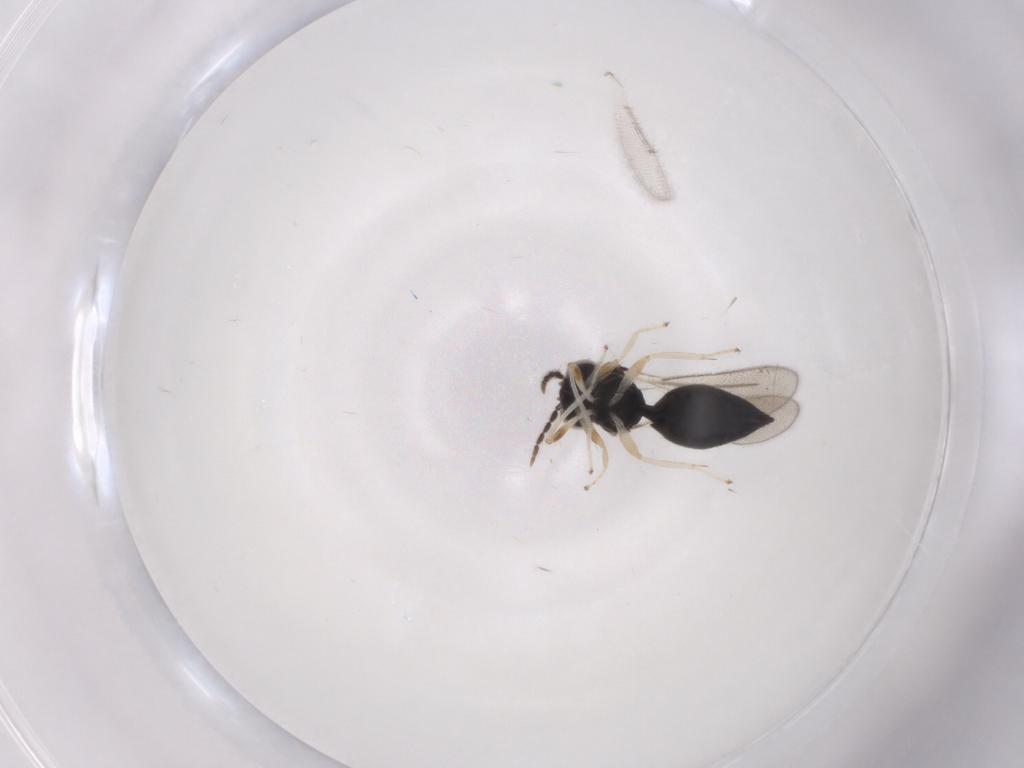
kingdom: Animalia
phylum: Arthropoda
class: Insecta
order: Hymenoptera
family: Eulophidae
